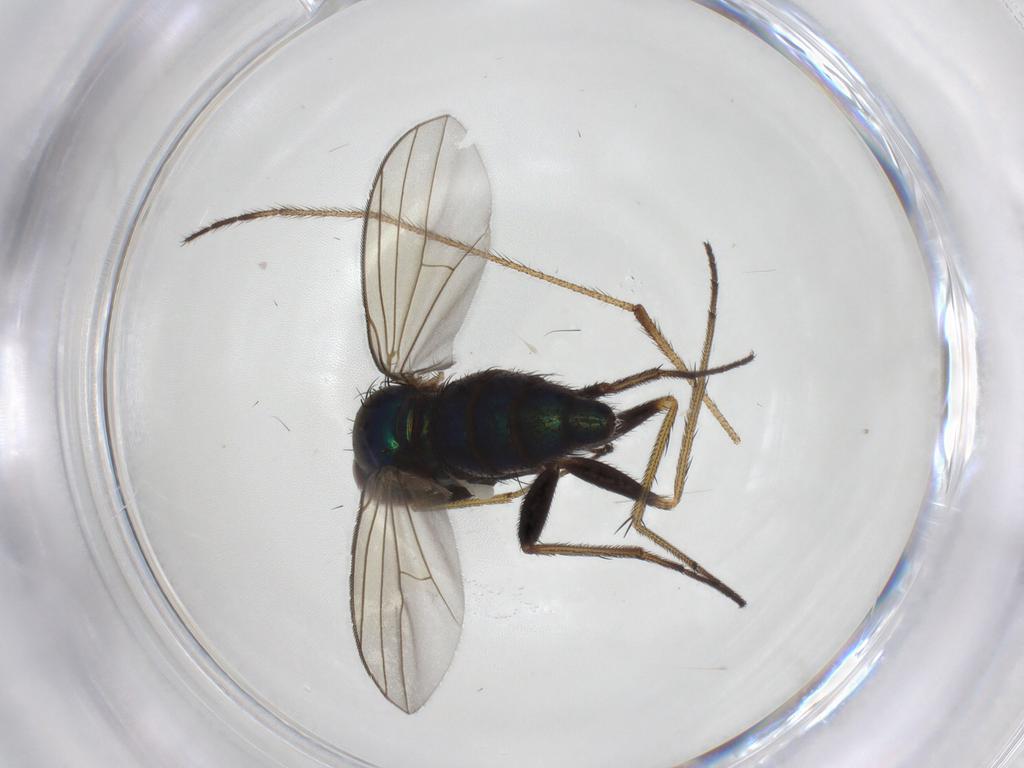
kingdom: Animalia
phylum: Arthropoda
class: Insecta
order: Diptera
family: Dolichopodidae
